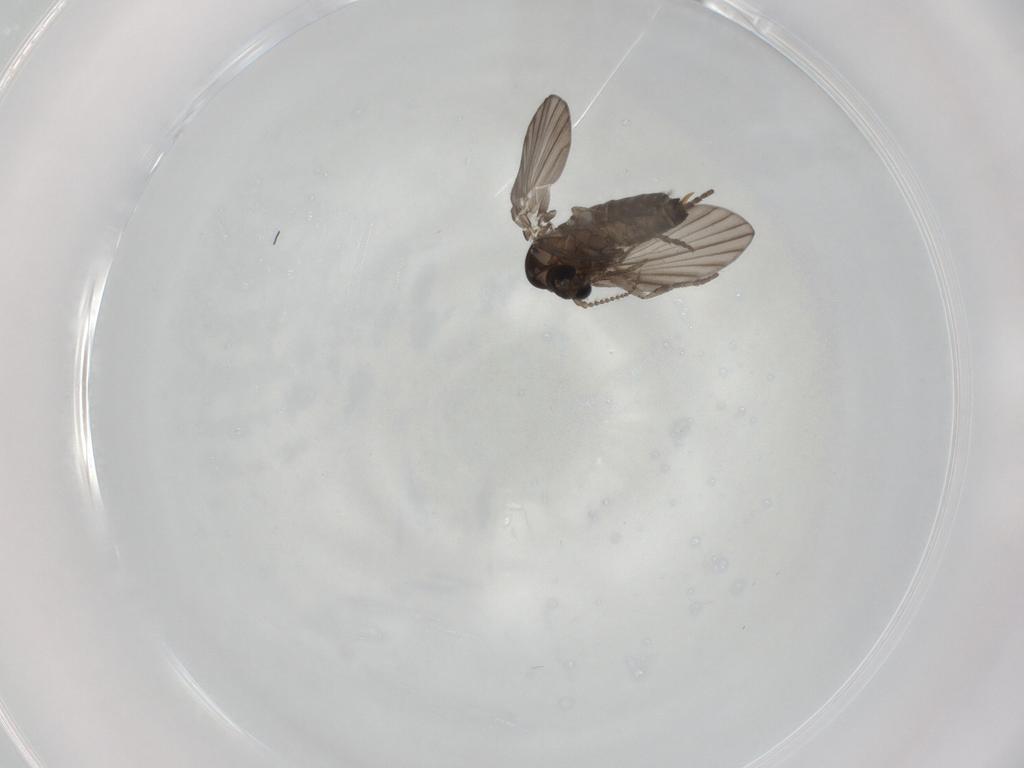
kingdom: Animalia
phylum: Arthropoda
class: Insecta
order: Diptera
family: Psychodidae
